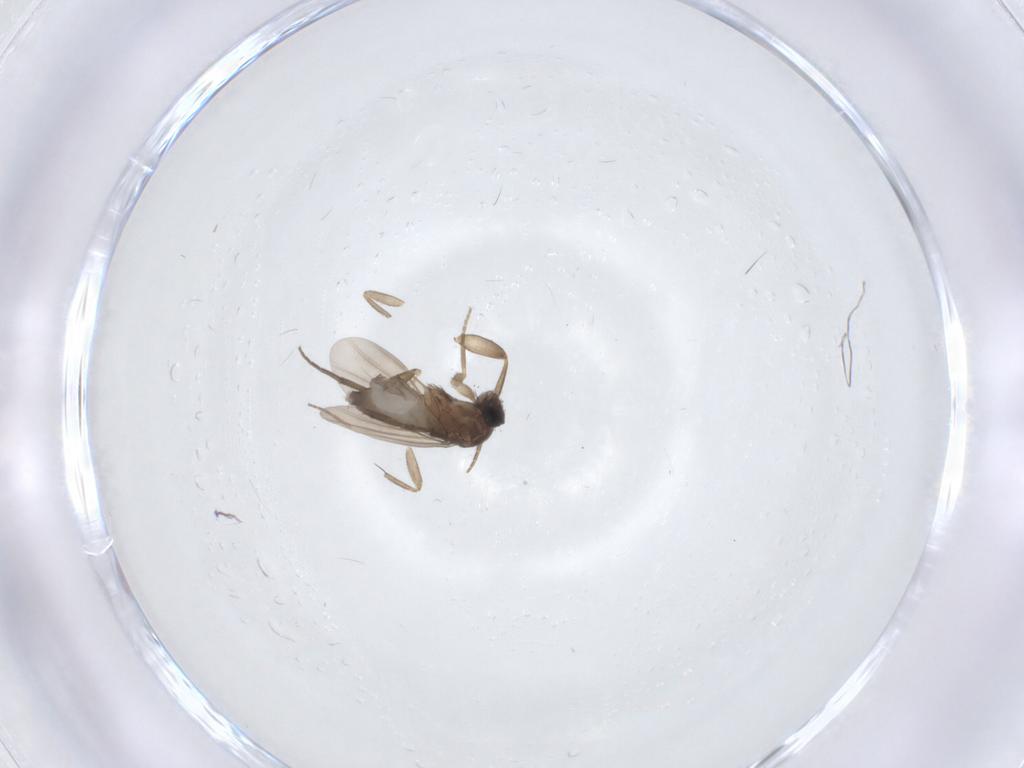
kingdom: Animalia
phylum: Arthropoda
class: Insecta
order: Diptera
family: Phoridae
